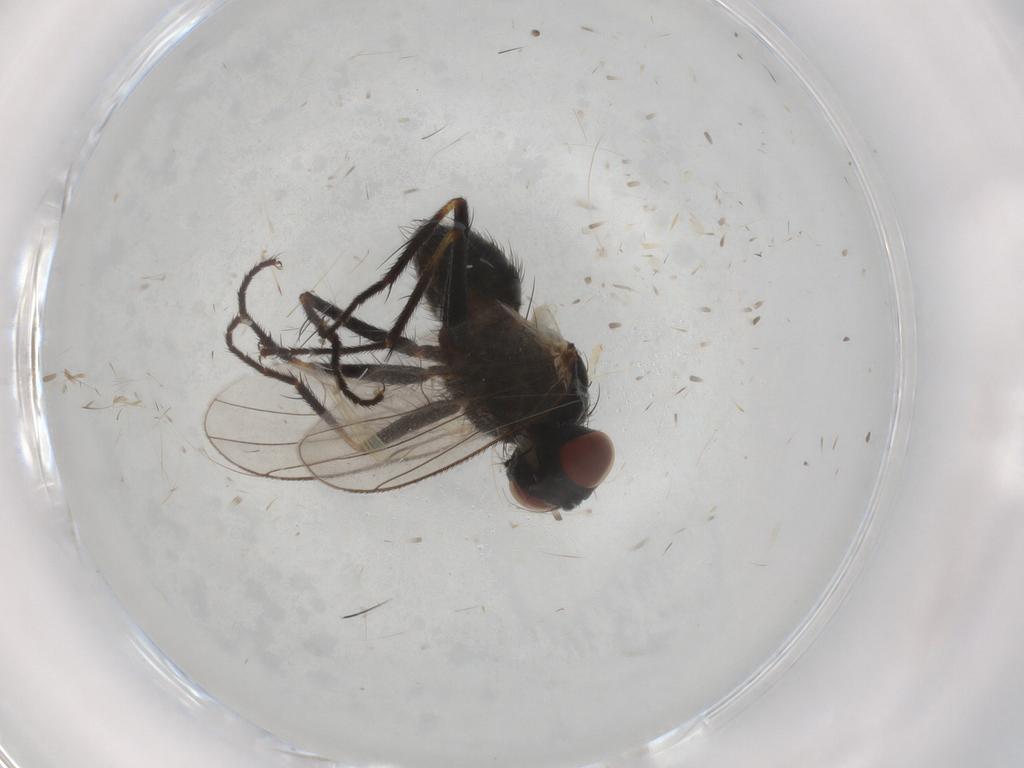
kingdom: Animalia
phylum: Arthropoda
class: Insecta
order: Diptera
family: Muscidae
